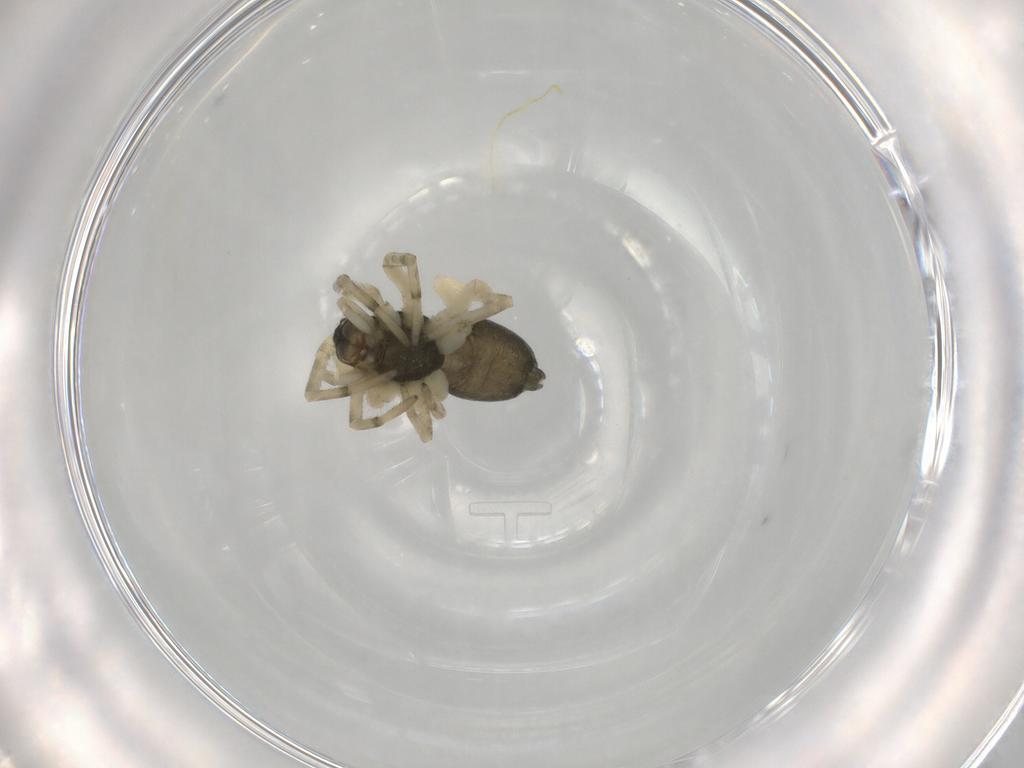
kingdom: Animalia
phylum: Arthropoda
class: Arachnida
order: Araneae
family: Trachelidae
